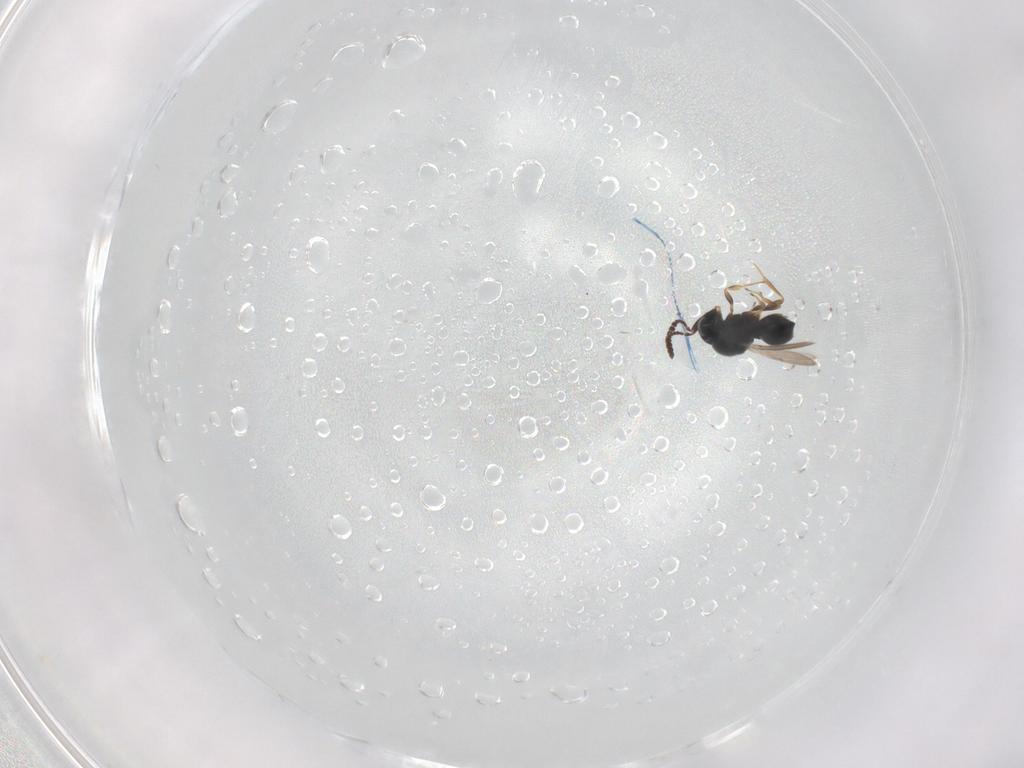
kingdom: Animalia
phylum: Arthropoda
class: Insecta
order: Hymenoptera
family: Scelionidae
